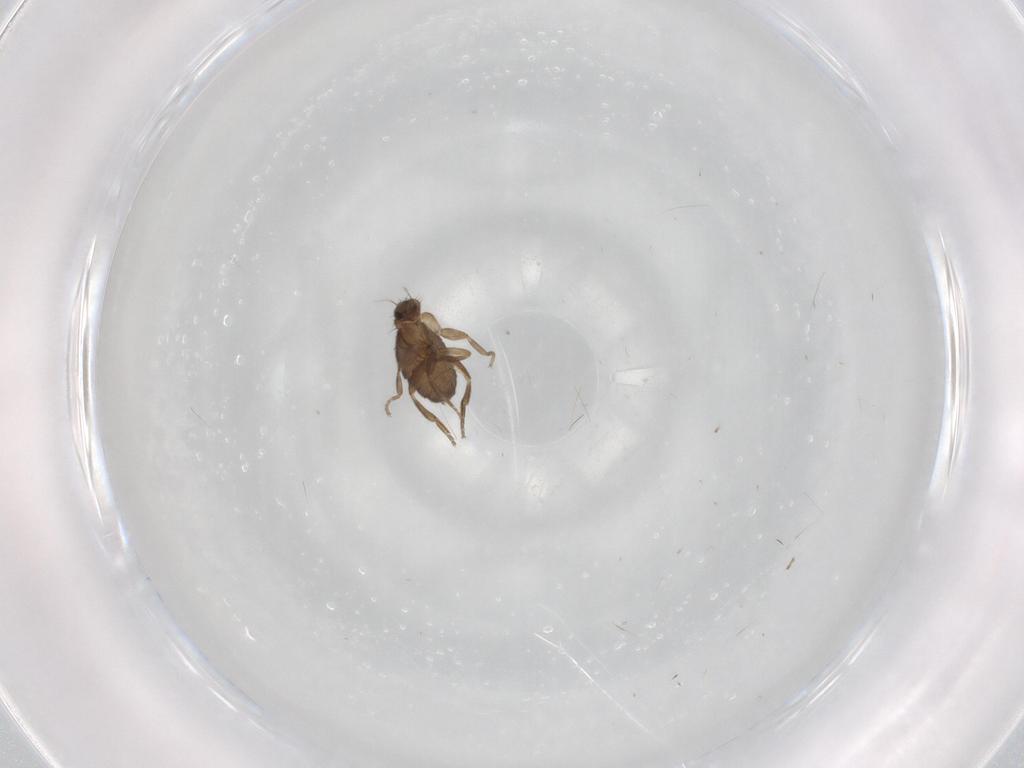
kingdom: Animalia
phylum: Arthropoda
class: Insecta
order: Diptera
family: Phoridae
